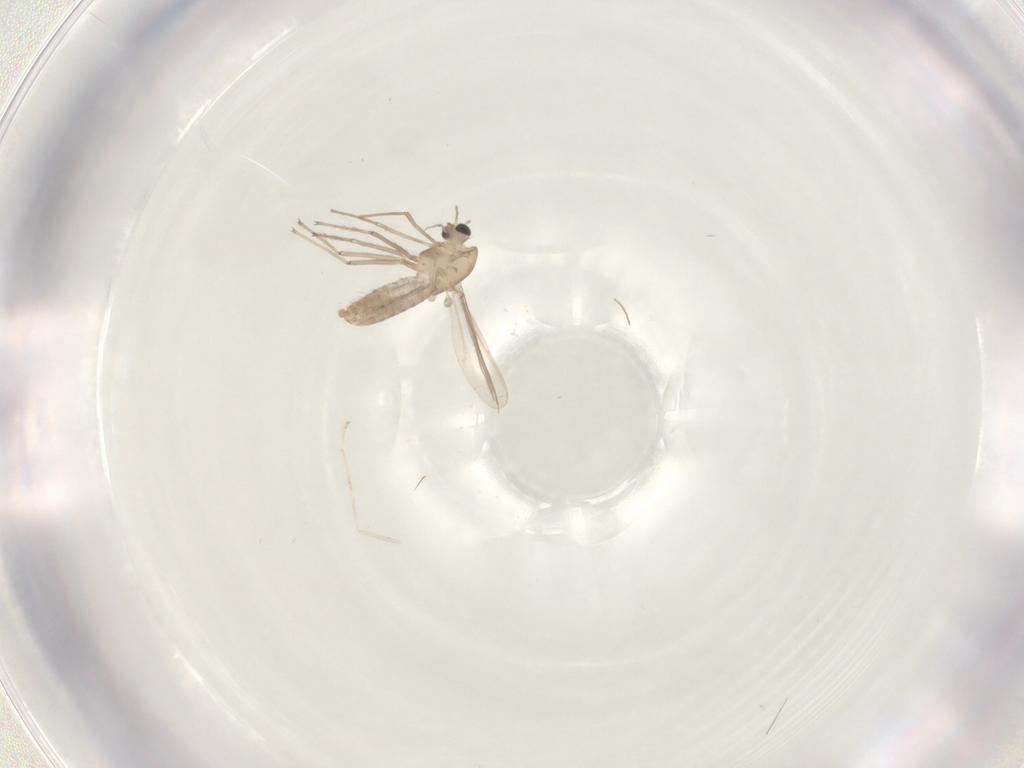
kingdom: Animalia
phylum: Arthropoda
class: Insecta
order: Diptera
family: Chironomidae
